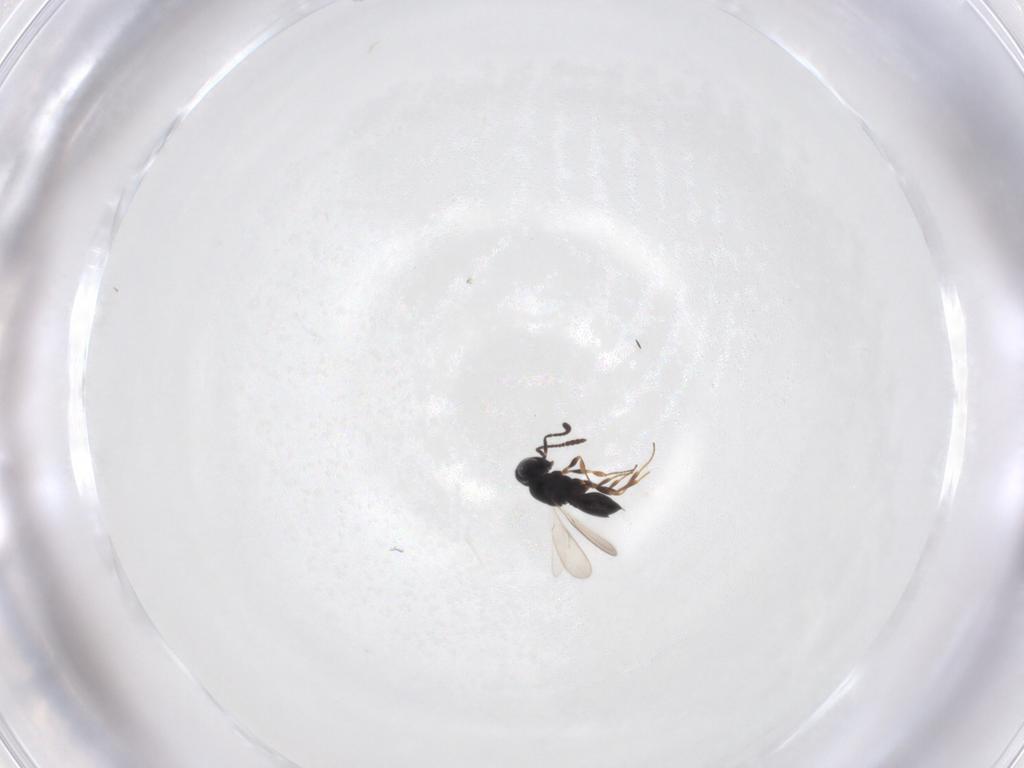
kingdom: Animalia
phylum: Arthropoda
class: Insecta
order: Hymenoptera
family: Scelionidae
